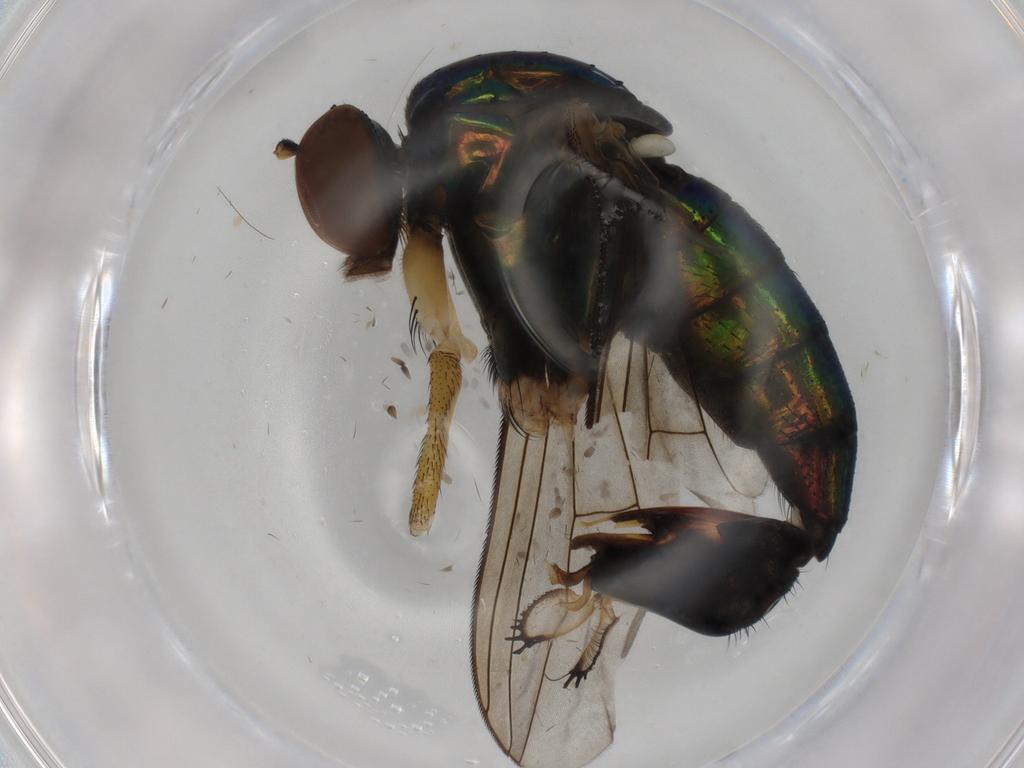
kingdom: Animalia
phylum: Arthropoda
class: Insecta
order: Diptera
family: Dolichopodidae
